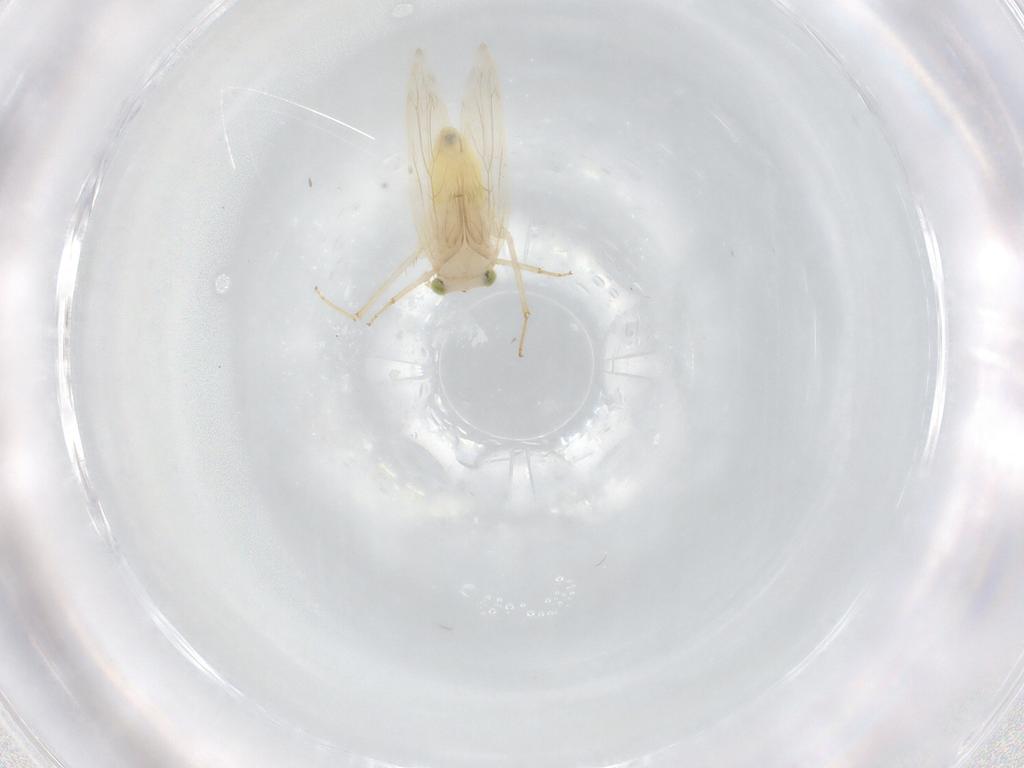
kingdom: Animalia
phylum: Arthropoda
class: Insecta
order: Psocodea
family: Lepidopsocidae
